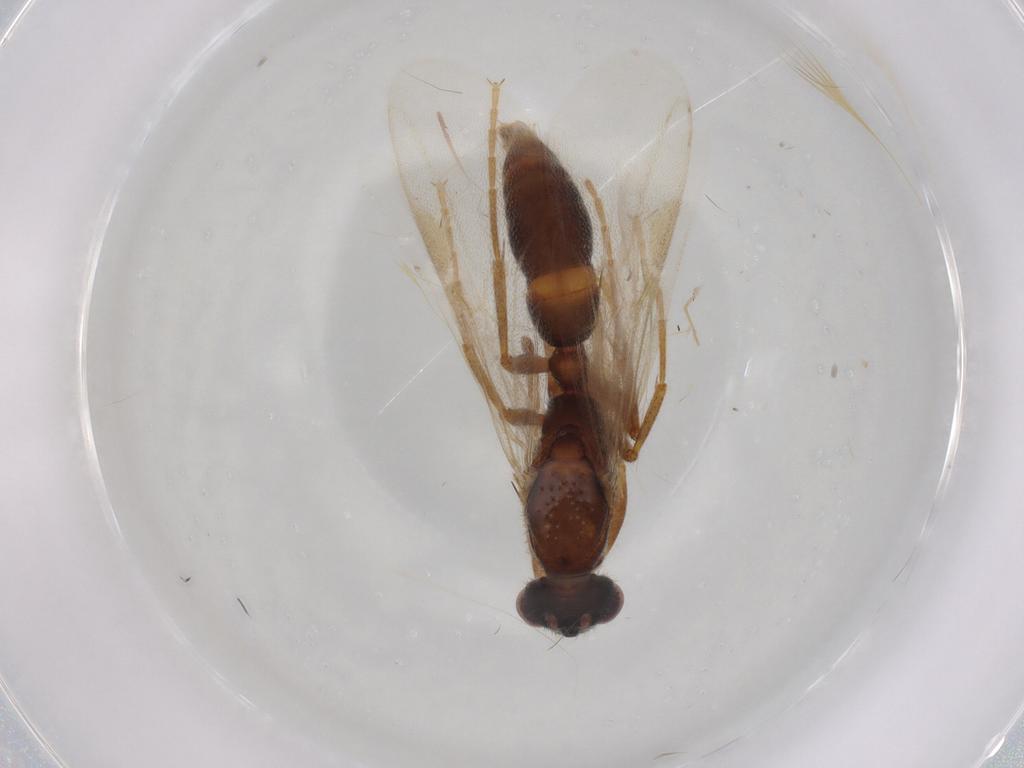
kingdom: Animalia
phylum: Arthropoda
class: Insecta
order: Hymenoptera
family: Formicidae
